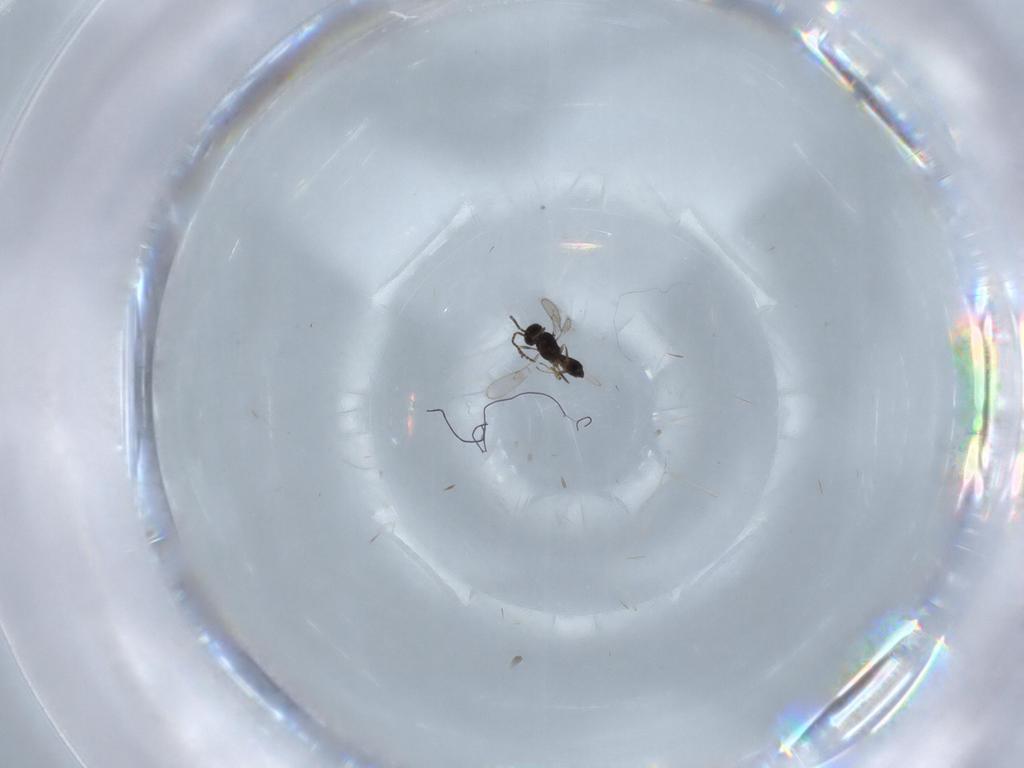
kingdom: Animalia
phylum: Arthropoda
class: Insecta
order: Hymenoptera
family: Scelionidae
